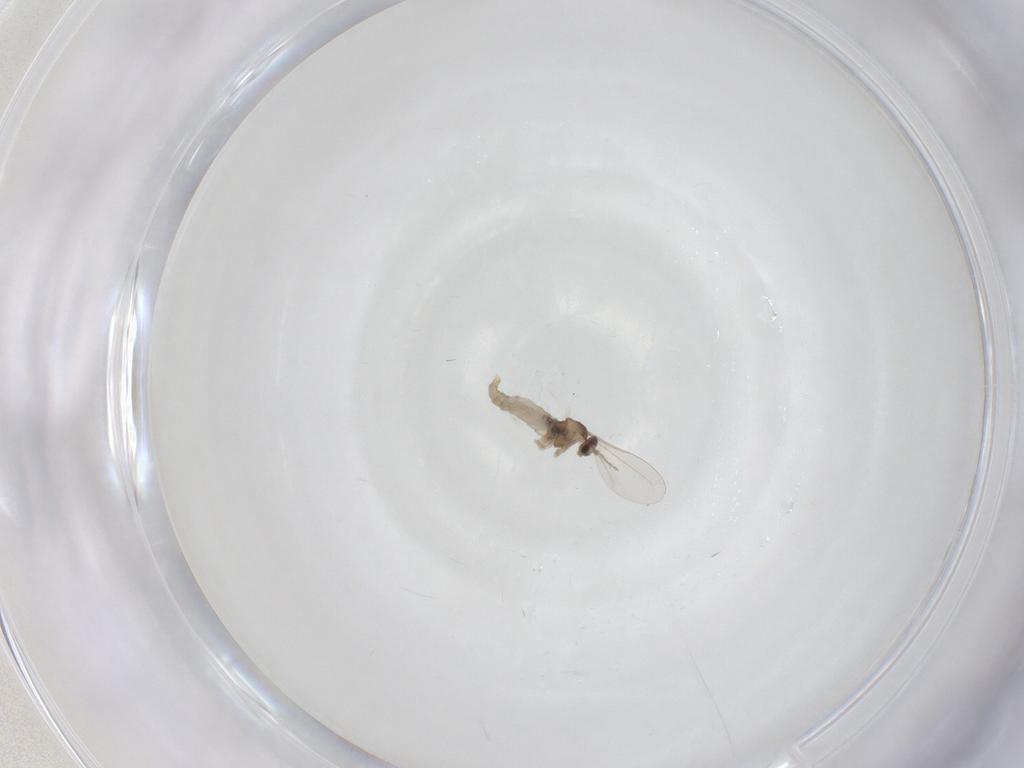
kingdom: Animalia
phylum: Arthropoda
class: Insecta
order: Diptera
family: Cecidomyiidae
